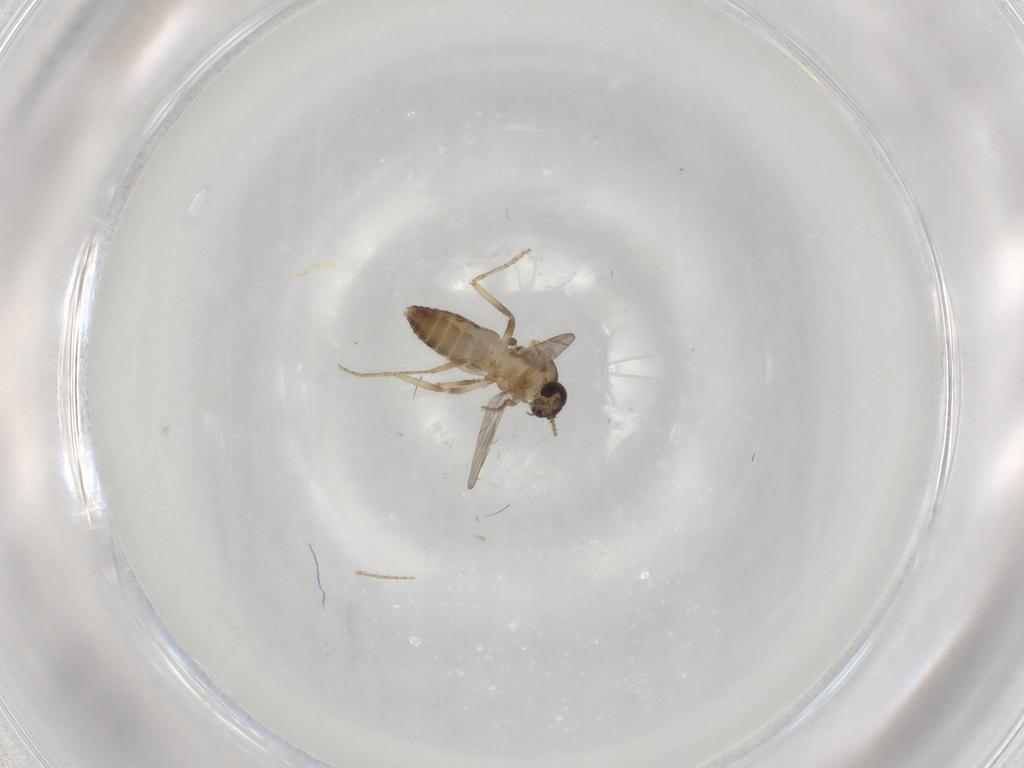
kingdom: Animalia
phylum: Arthropoda
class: Insecta
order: Diptera
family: Ceratopogonidae
